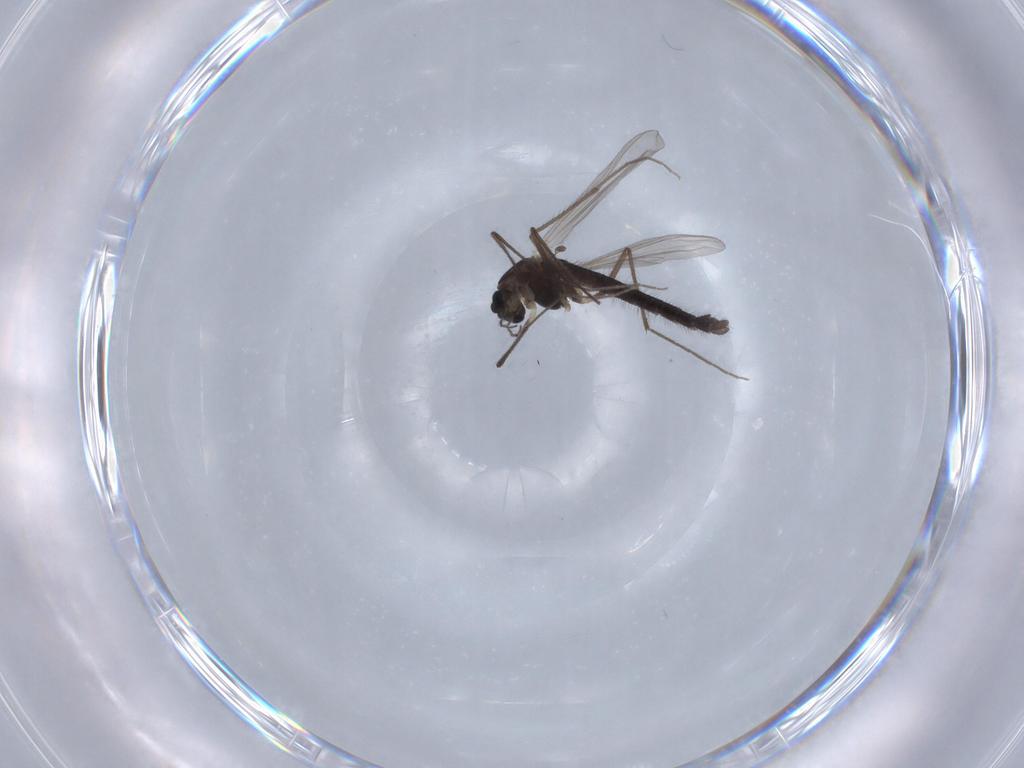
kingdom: Animalia
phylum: Arthropoda
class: Insecta
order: Diptera
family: Chironomidae
